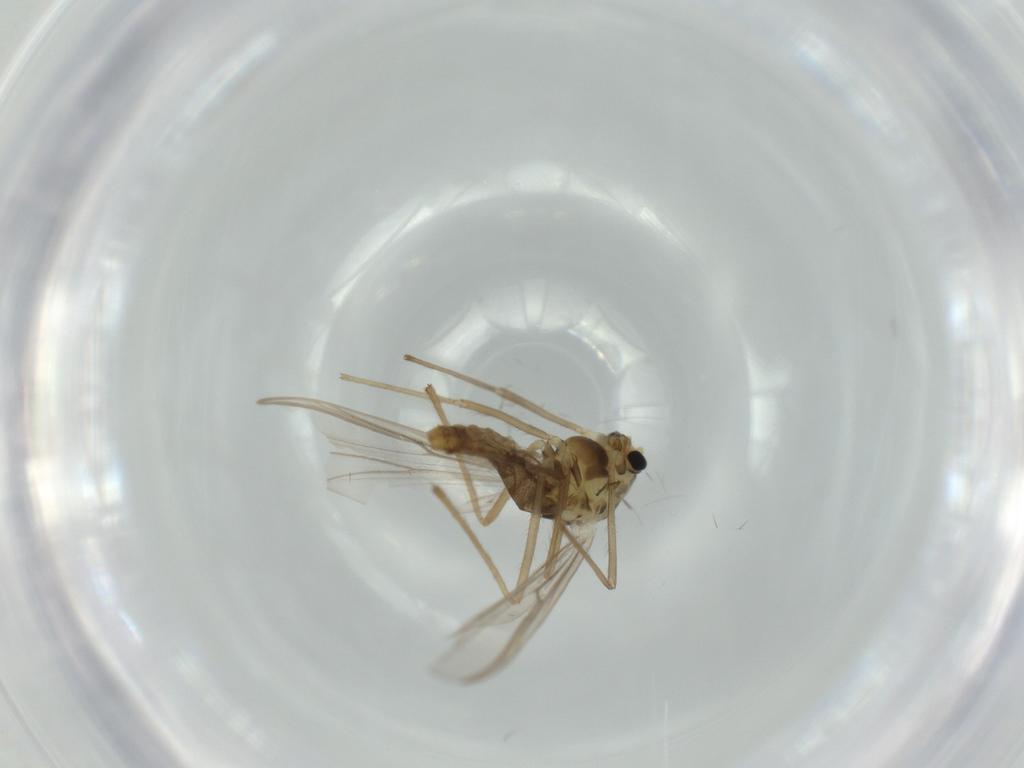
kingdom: Animalia
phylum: Arthropoda
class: Insecta
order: Diptera
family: Chironomidae
